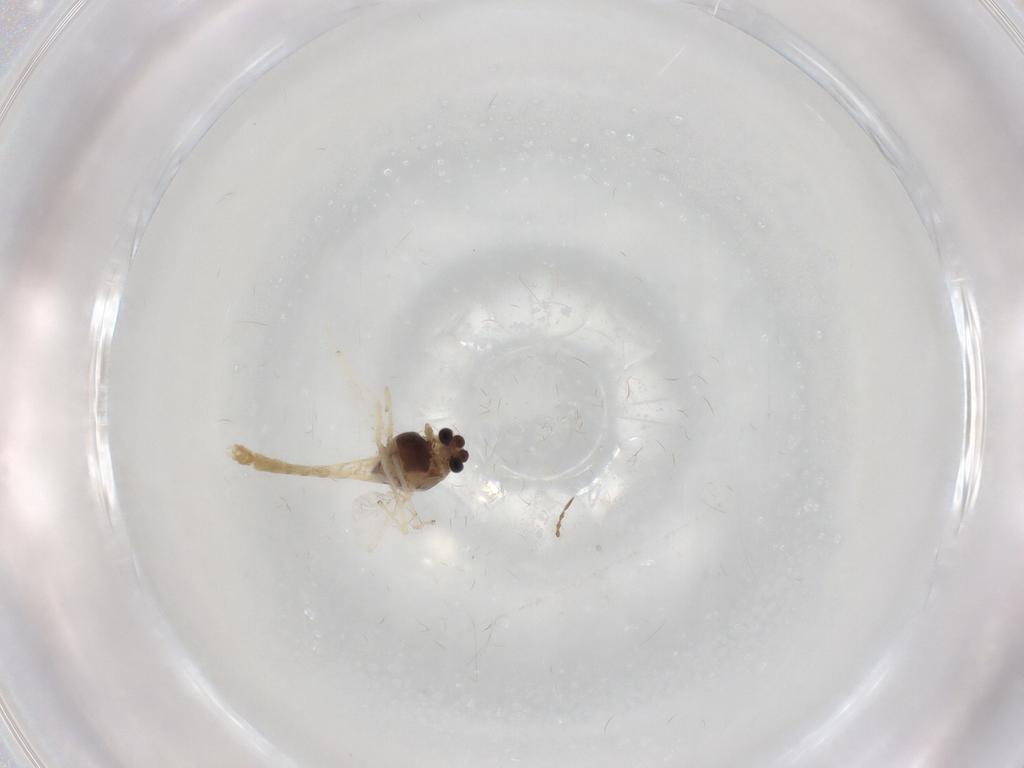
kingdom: Animalia
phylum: Arthropoda
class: Insecta
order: Diptera
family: Chironomidae
